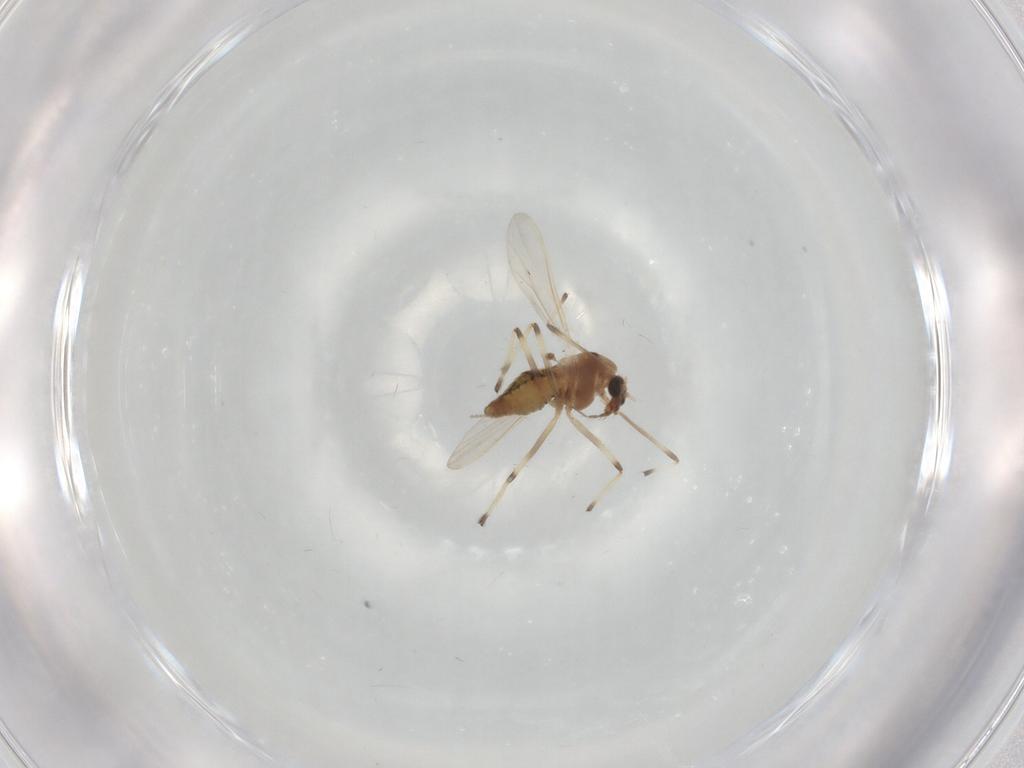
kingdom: Animalia
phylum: Arthropoda
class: Insecta
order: Diptera
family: Chironomidae
